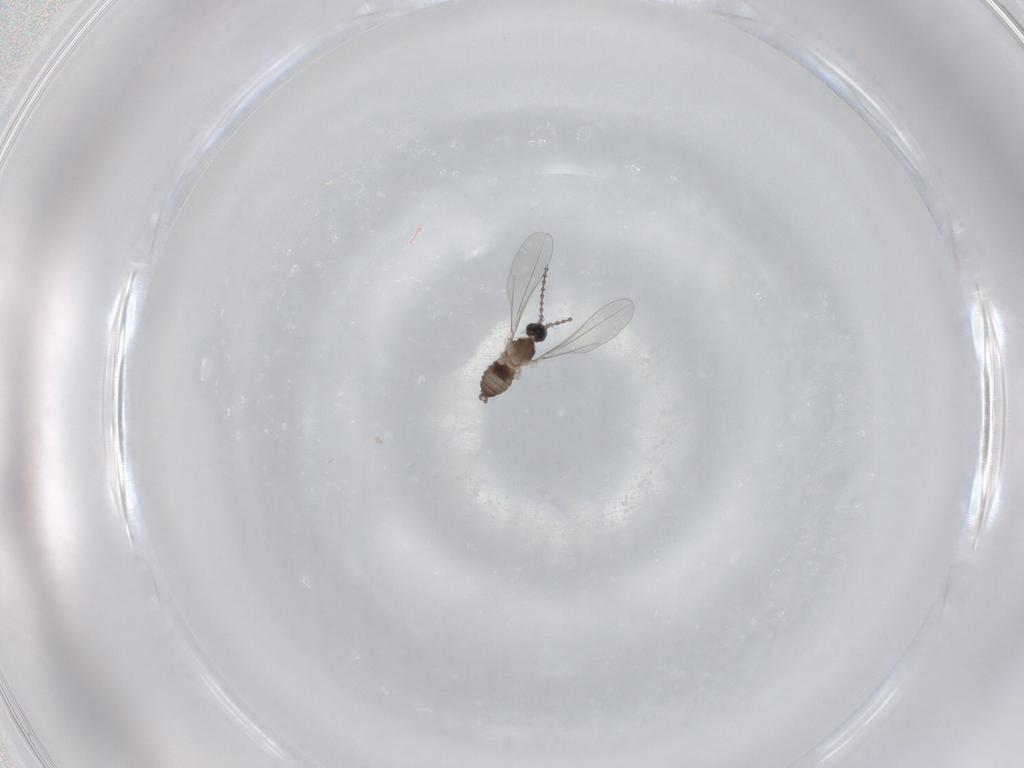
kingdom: Animalia
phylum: Arthropoda
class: Insecta
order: Diptera
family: Cecidomyiidae
